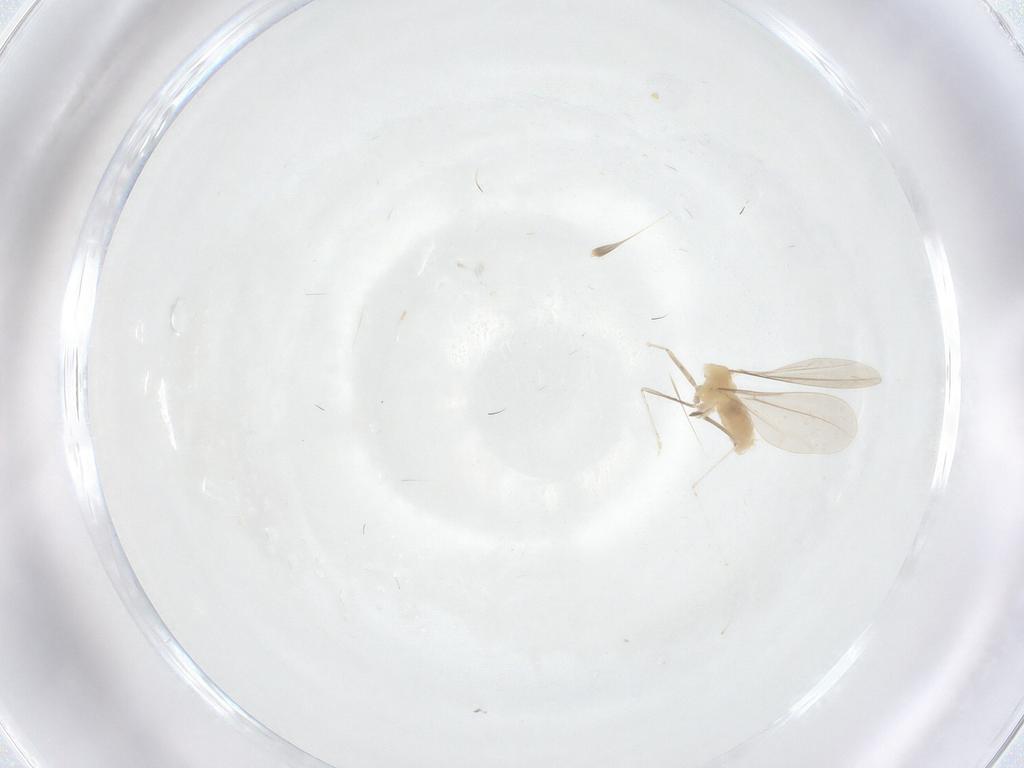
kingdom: Animalia
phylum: Arthropoda
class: Insecta
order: Diptera
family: Cecidomyiidae
